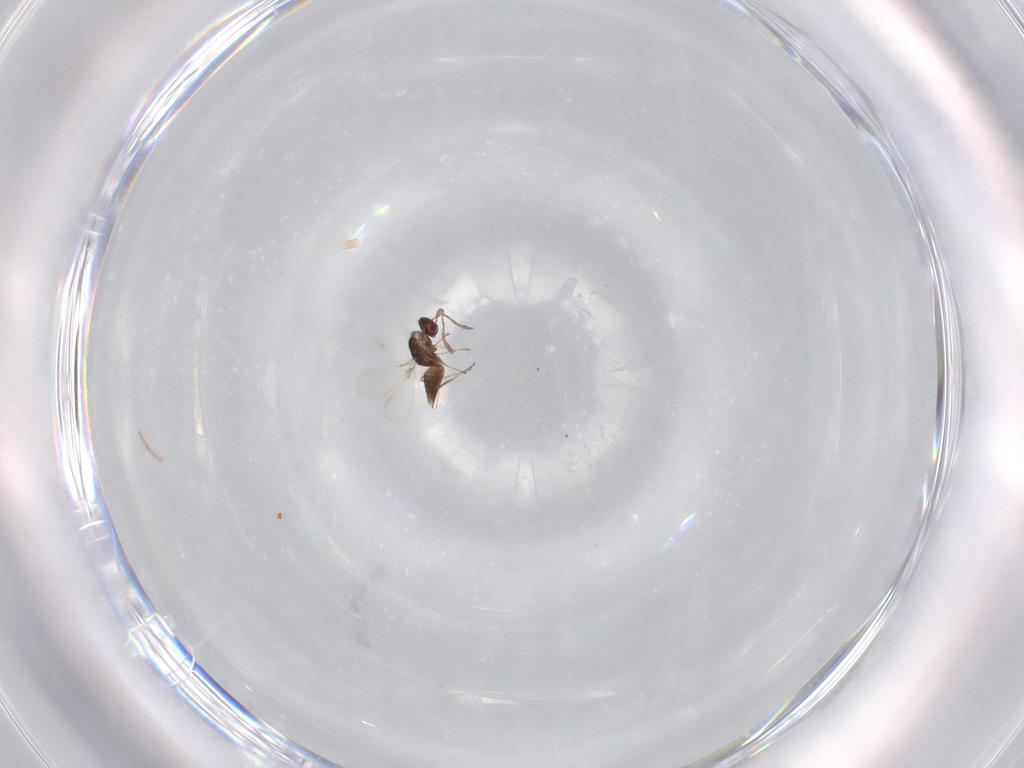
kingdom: Animalia
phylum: Arthropoda
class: Insecta
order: Hymenoptera
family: Mymaridae
